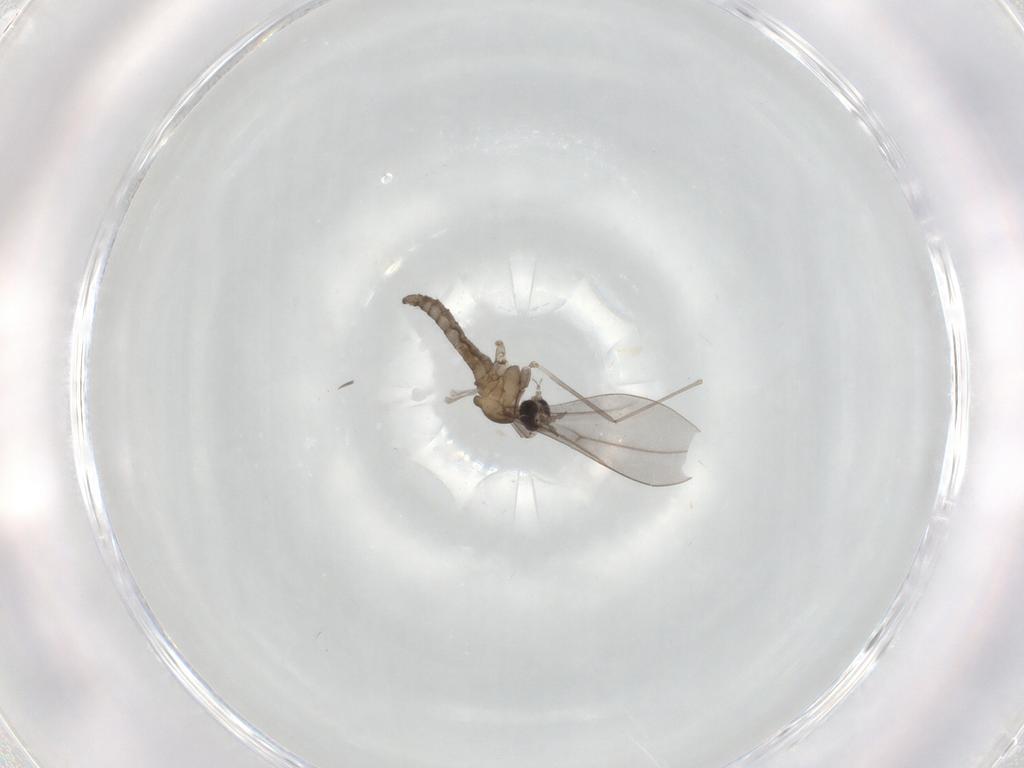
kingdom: Animalia
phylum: Arthropoda
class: Insecta
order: Diptera
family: Cecidomyiidae
